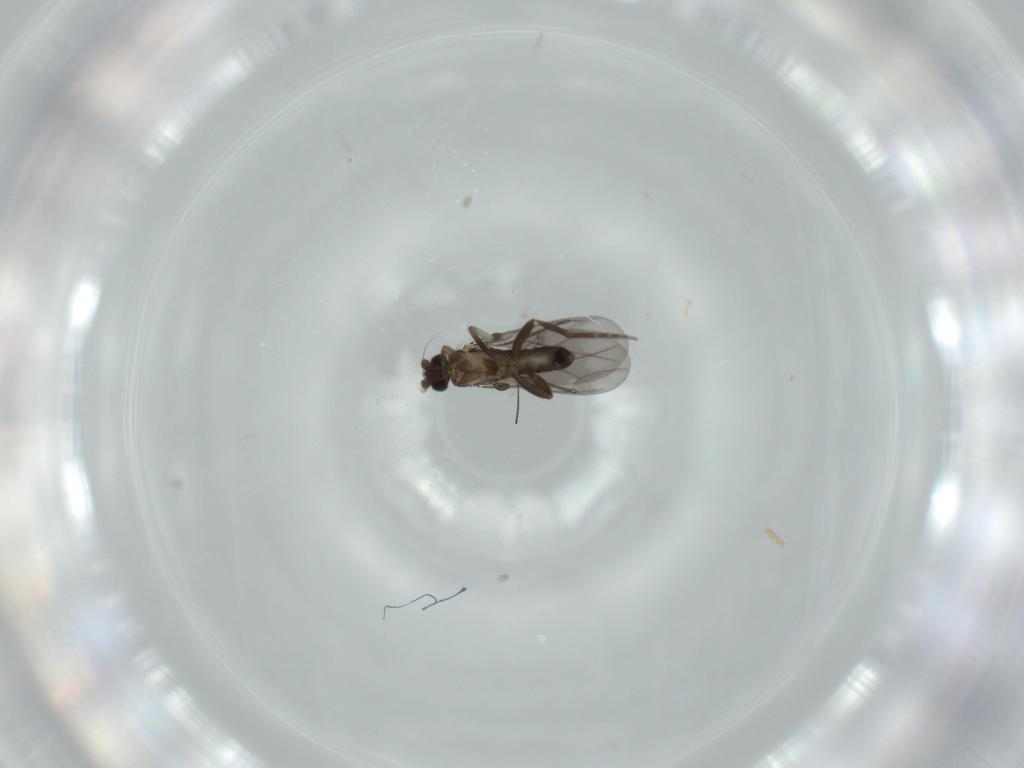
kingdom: Animalia
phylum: Arthropoda
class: Insecta
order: Diptera
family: Phoridae
